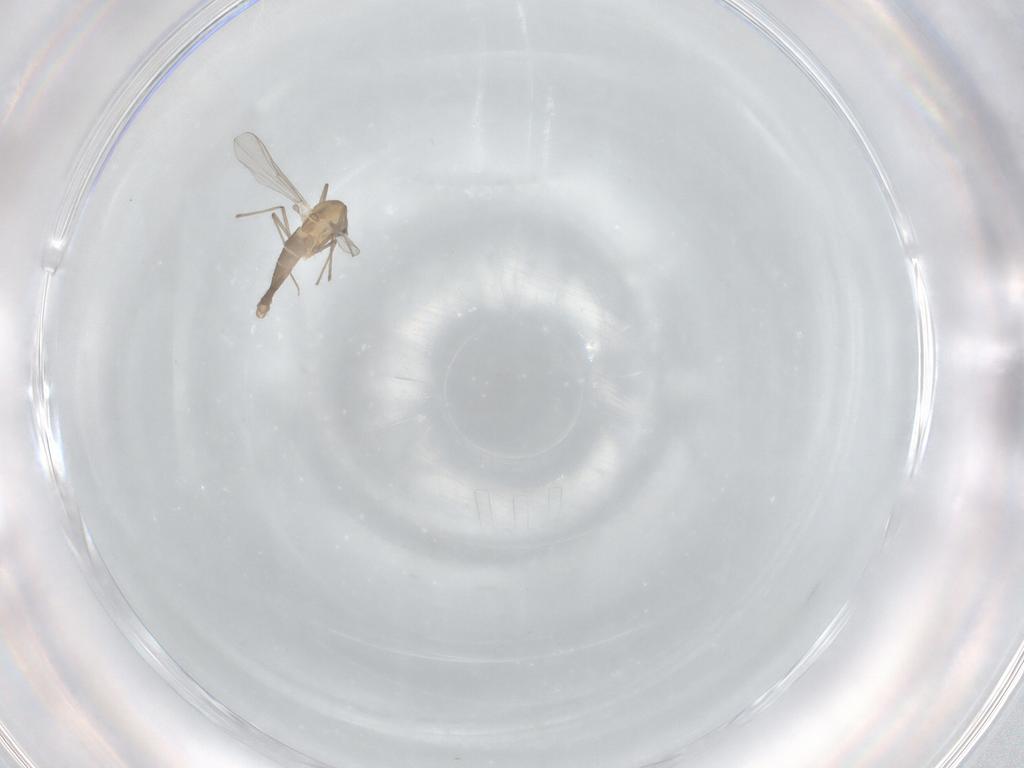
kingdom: Animalia
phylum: Arthropoda
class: Insecta
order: Diptera
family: Chironomidae
